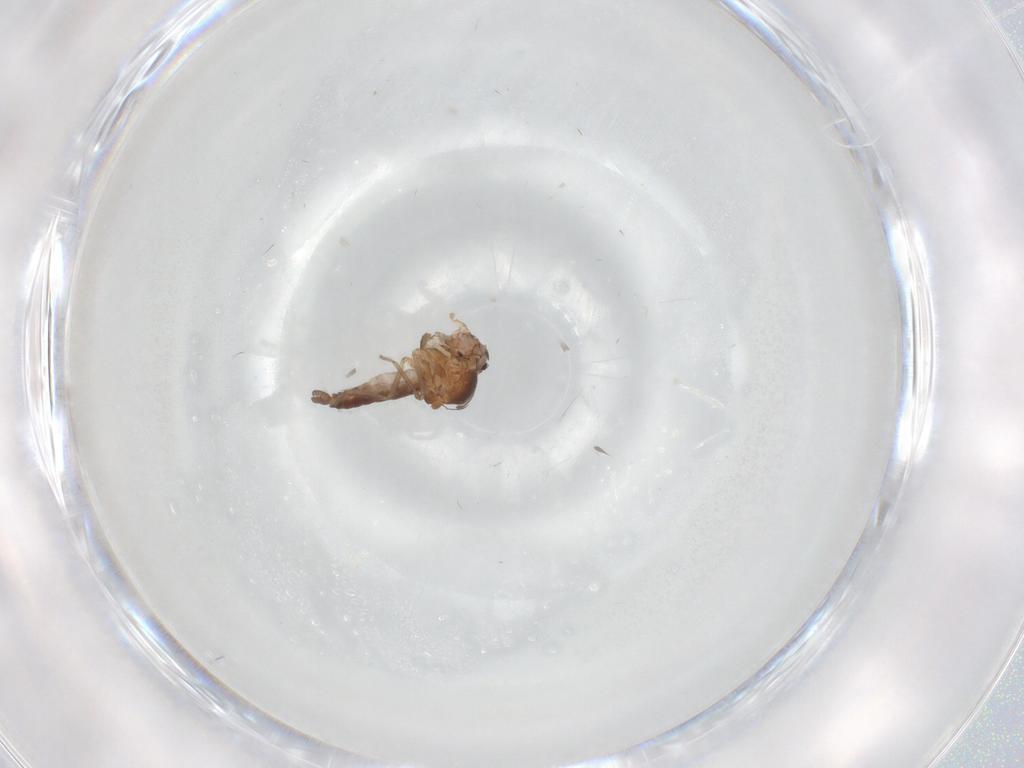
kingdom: Animalia
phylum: Arthropoda
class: Insecta
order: Diptera
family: Ceratopogonidae
